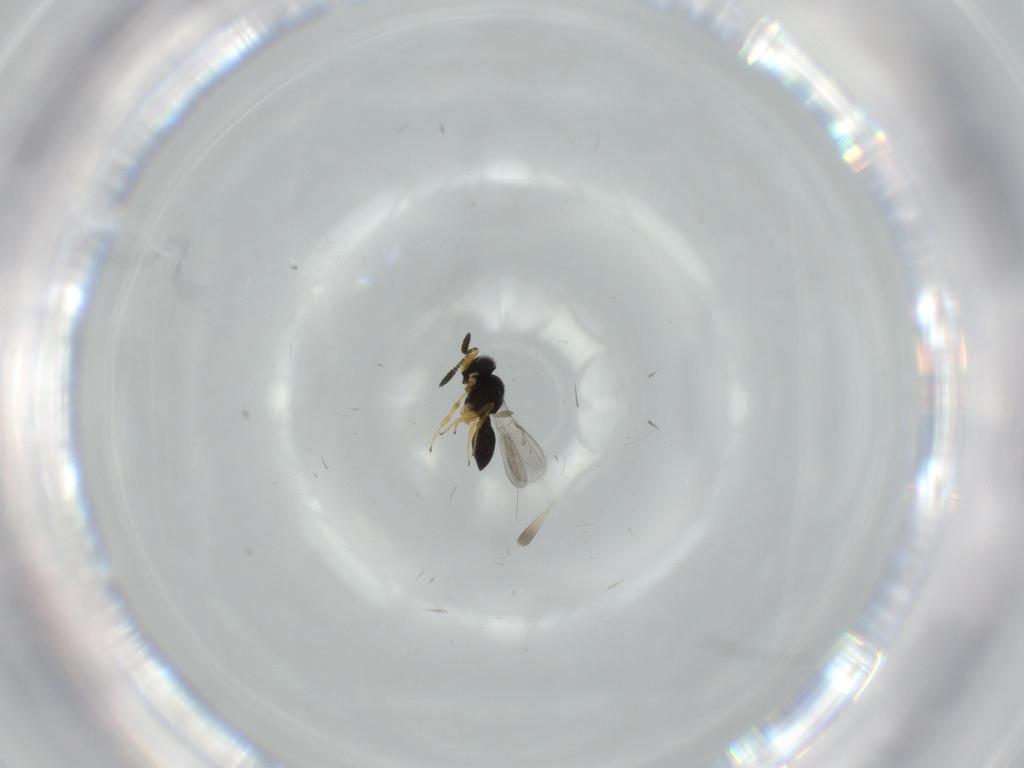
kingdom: Animalia
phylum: Arthropoda
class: Insecta
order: Hymenoptera
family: Scelionidae
